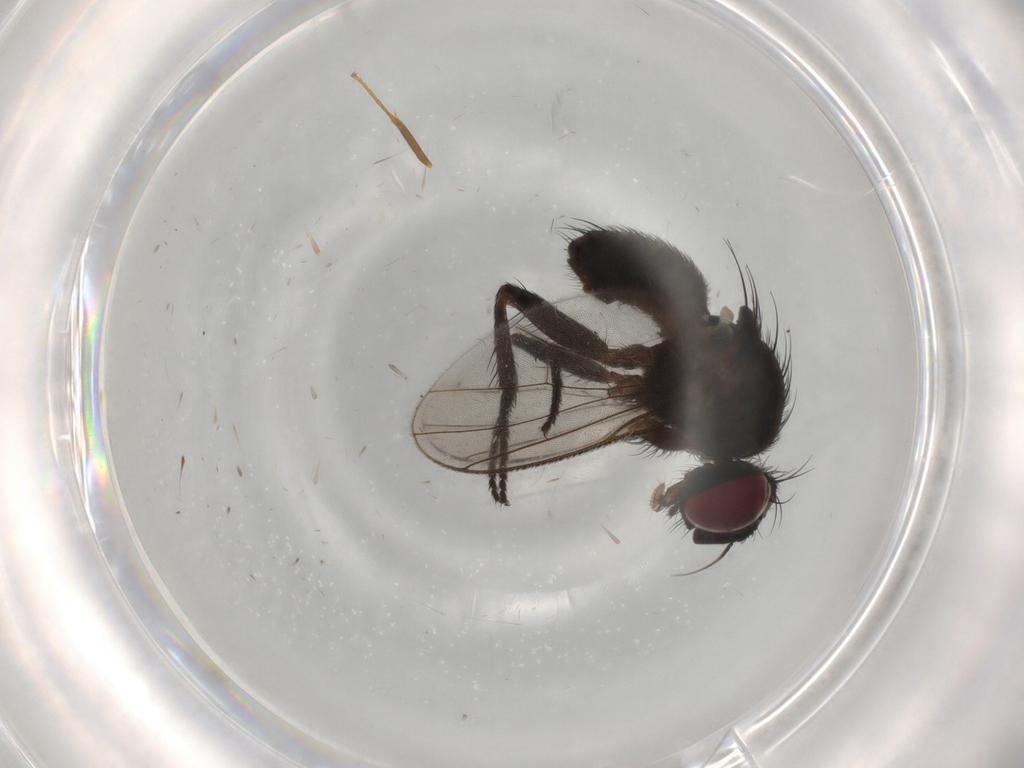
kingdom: Animalia
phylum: Arthropoda
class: Insecta
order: Diptera
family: Muscidae
